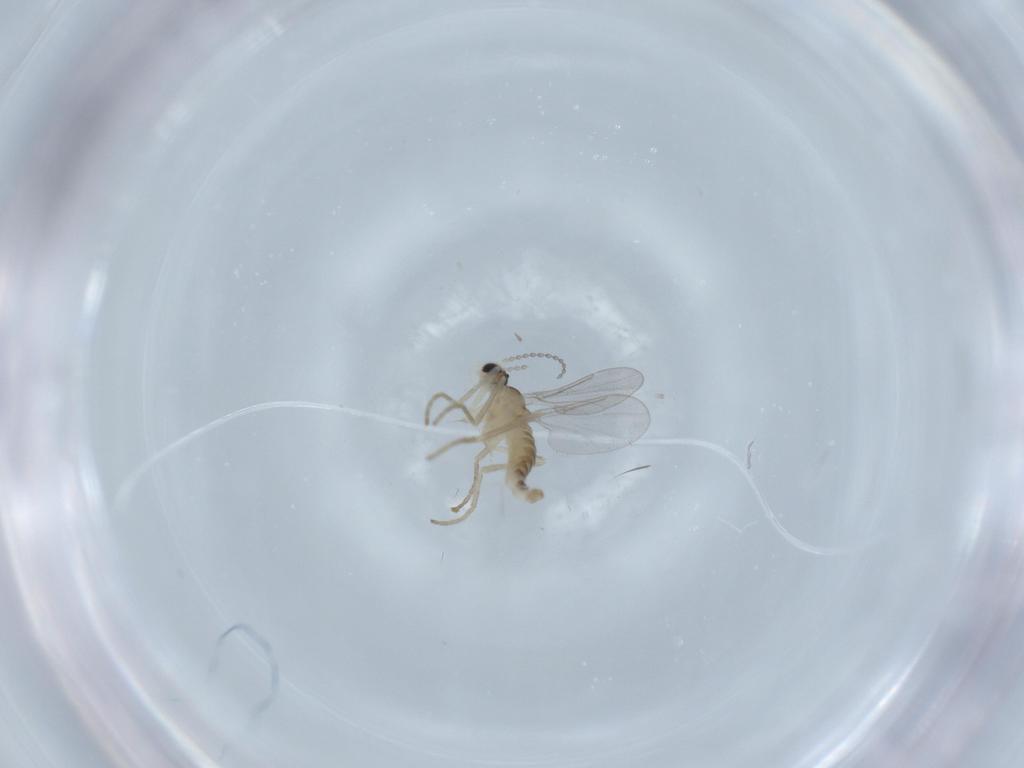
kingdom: Animalia
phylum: Arthropoda
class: Insecta
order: Diptera
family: Cecidomyiidae
